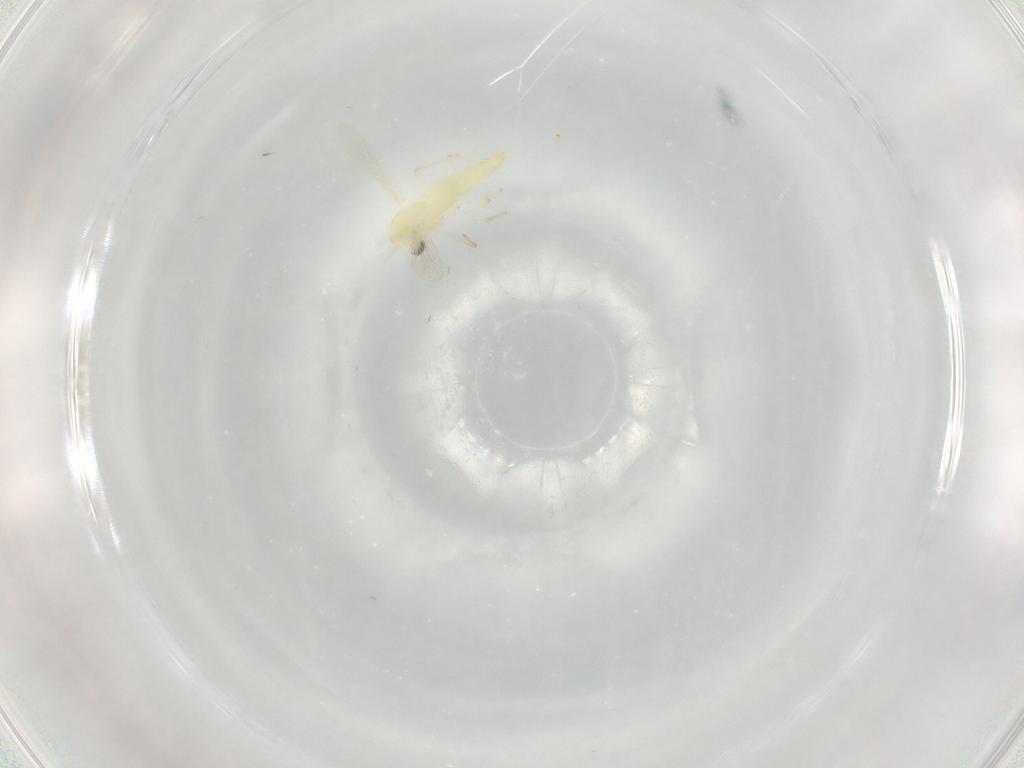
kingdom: Animalia
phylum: Arthropoda
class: Insecta
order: Diptera
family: Chironomidae
